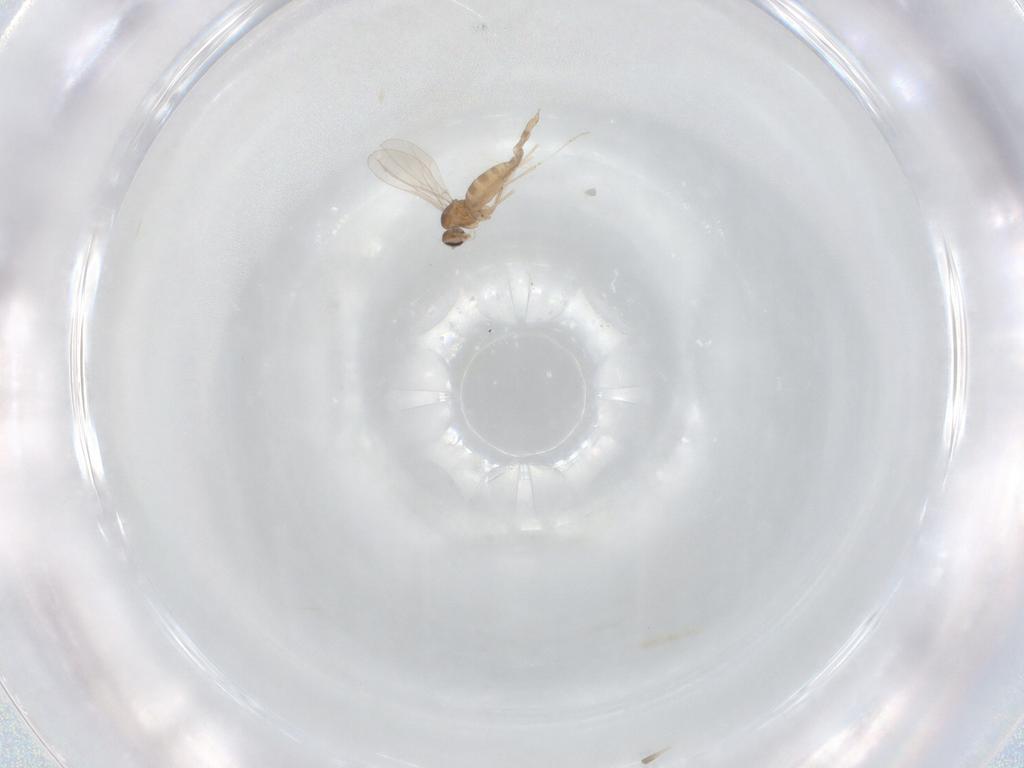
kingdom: Animalia
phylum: Arthropoda
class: Insecta
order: Diptera
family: Cecidomyiidae
